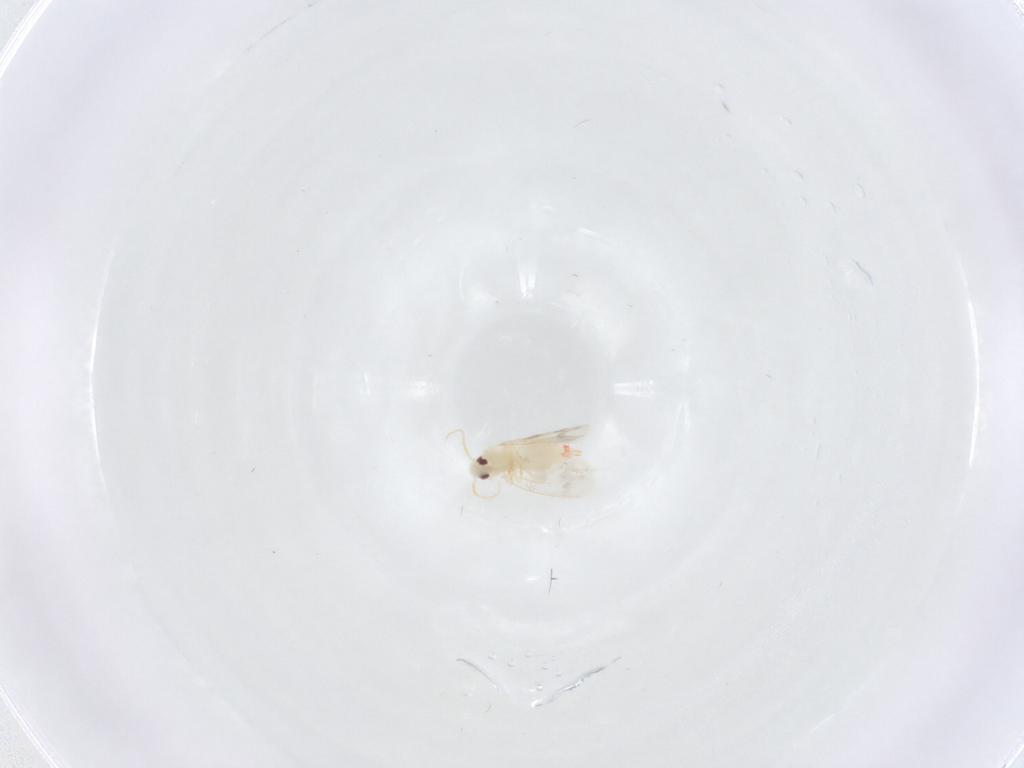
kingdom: Animalia
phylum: Arthropoda
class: Insecta
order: Hemiptera
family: Aleyrodidae
